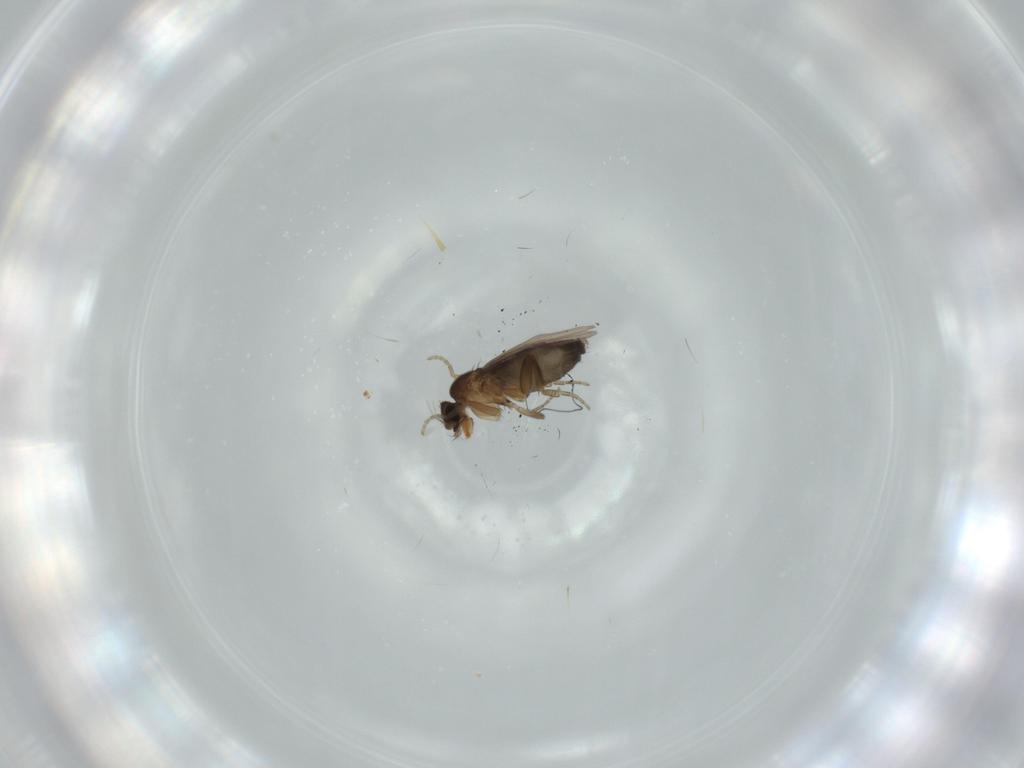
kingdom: Animalia
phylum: Arthropoda
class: Insecta
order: Diptera
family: Phoridae
